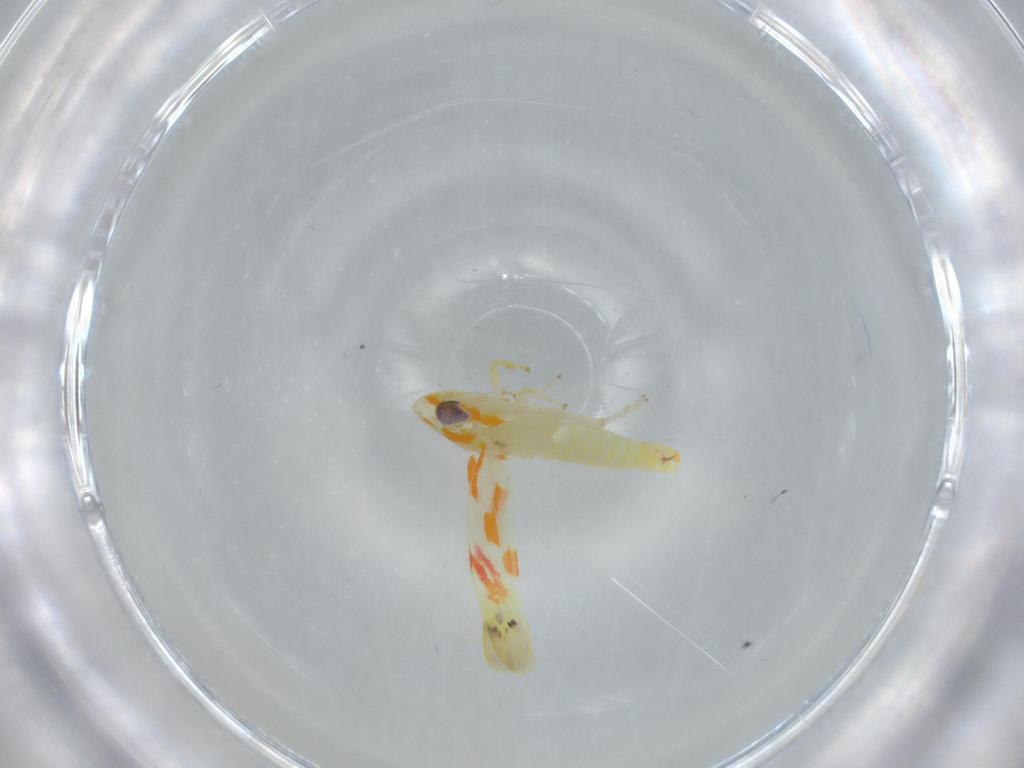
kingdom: Animalia
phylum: Arthropoda
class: Insecta
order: Hemiptera
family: Cicadellidae
